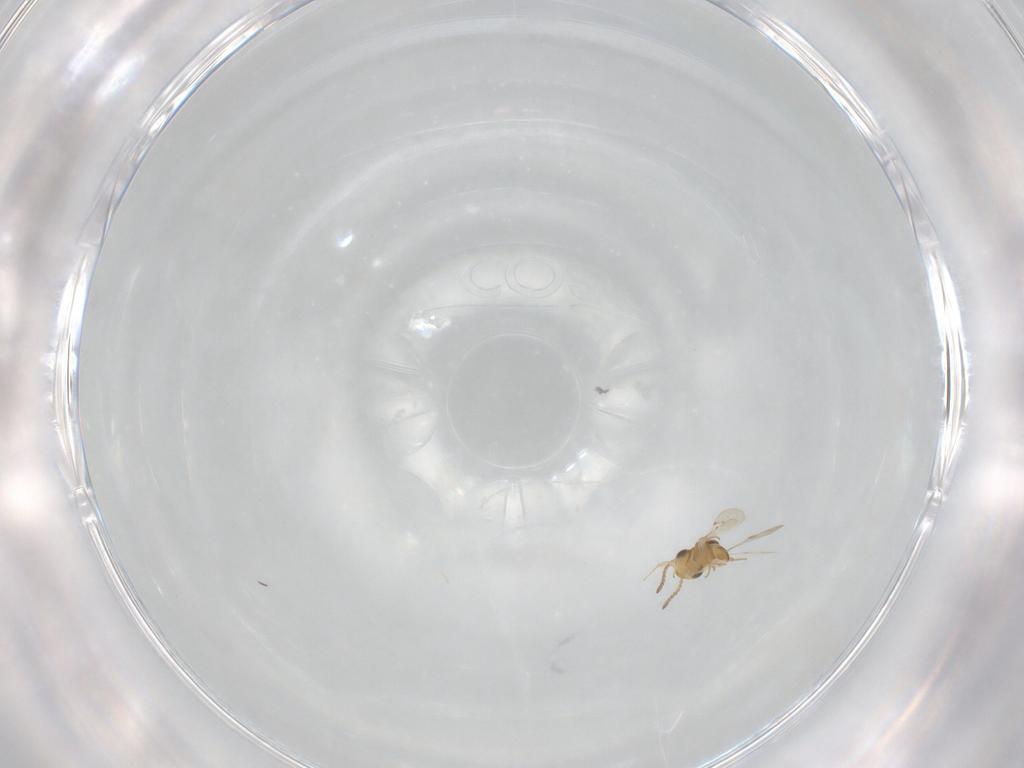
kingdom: Animalia
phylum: Arthropoda
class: Insecta
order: Hymenoptera
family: Scelionidae
